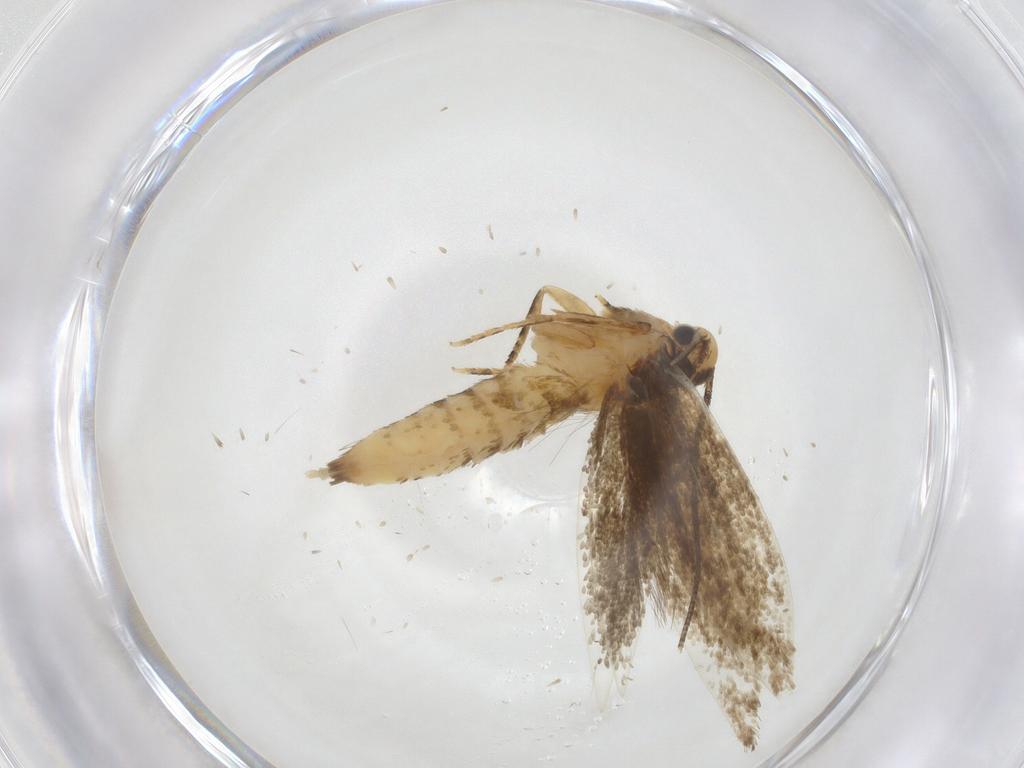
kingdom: Animalia
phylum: Arthropoda
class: Insecta
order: Lepidoptera
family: Tineidae
